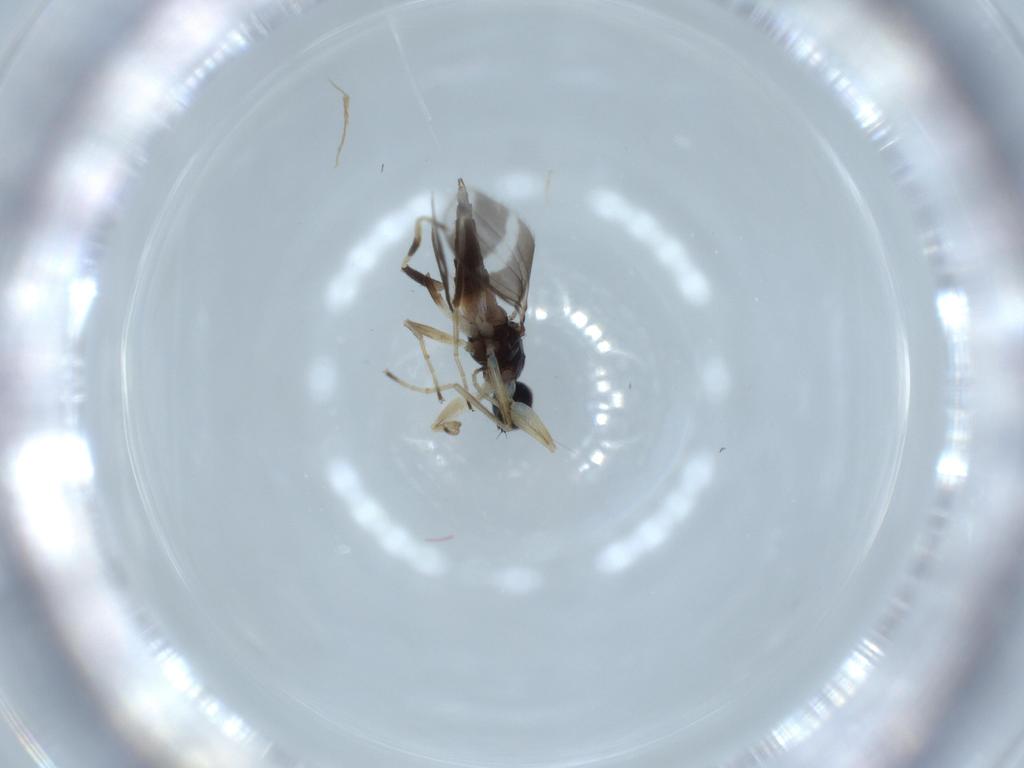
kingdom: Animalia
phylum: Arthropoda
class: Insecta
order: Diptera
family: Hybotidae
